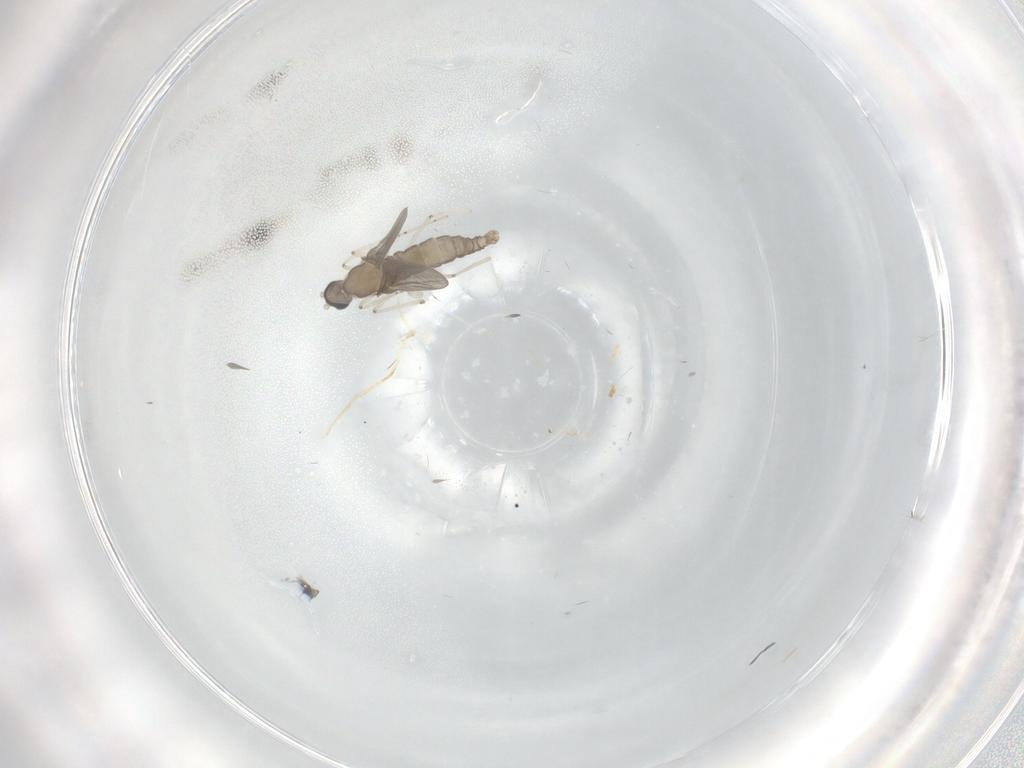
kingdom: Animalia
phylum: Arthropoda
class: Insecta
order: Diptera
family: Cecidomyiidae
